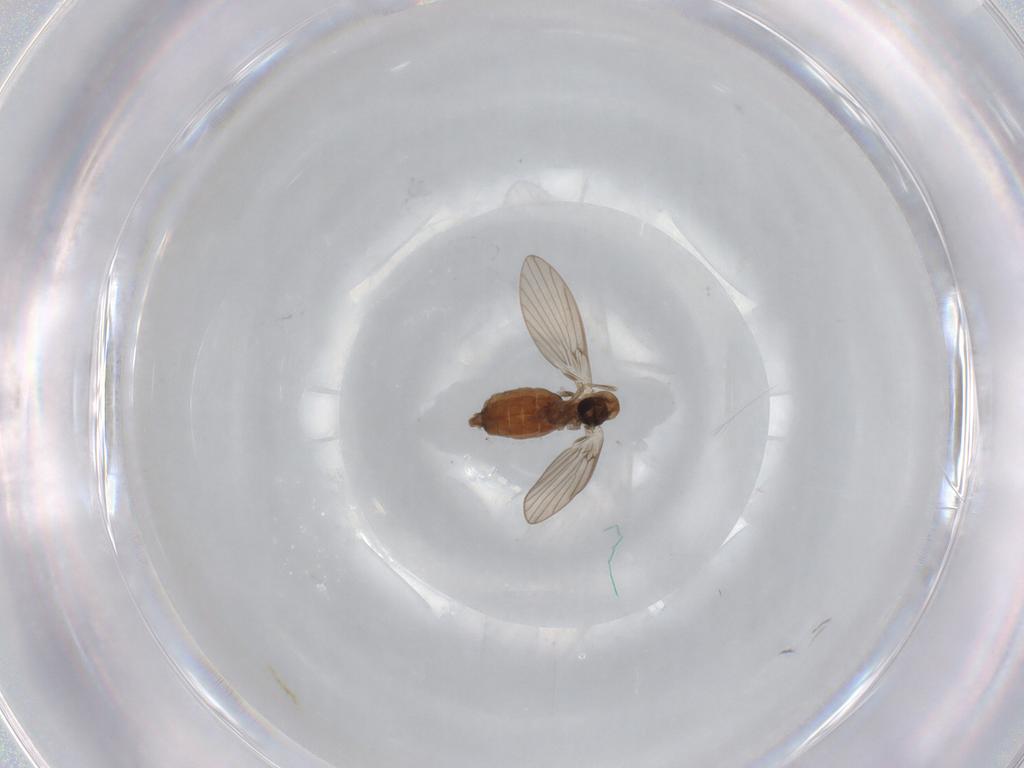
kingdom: Animalia
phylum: Arthropoda
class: Insecta
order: Diptera
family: Psychodidae
